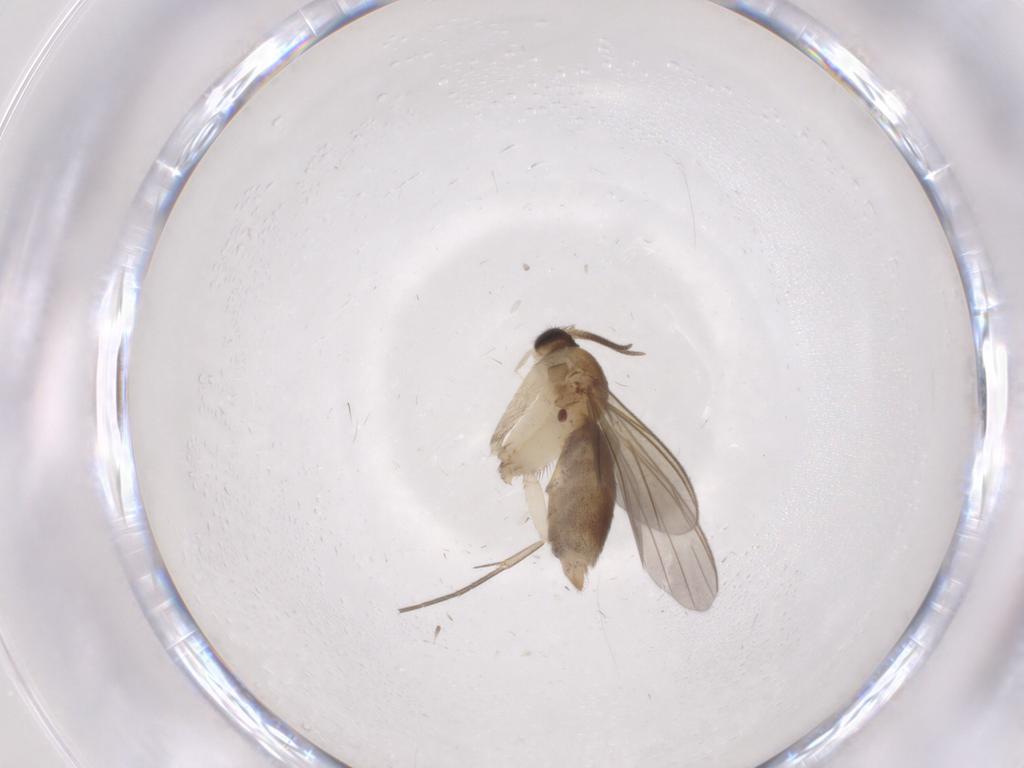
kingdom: Animalia
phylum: Arthropoda
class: Insecta
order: Diptera
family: Mycetophilidae
